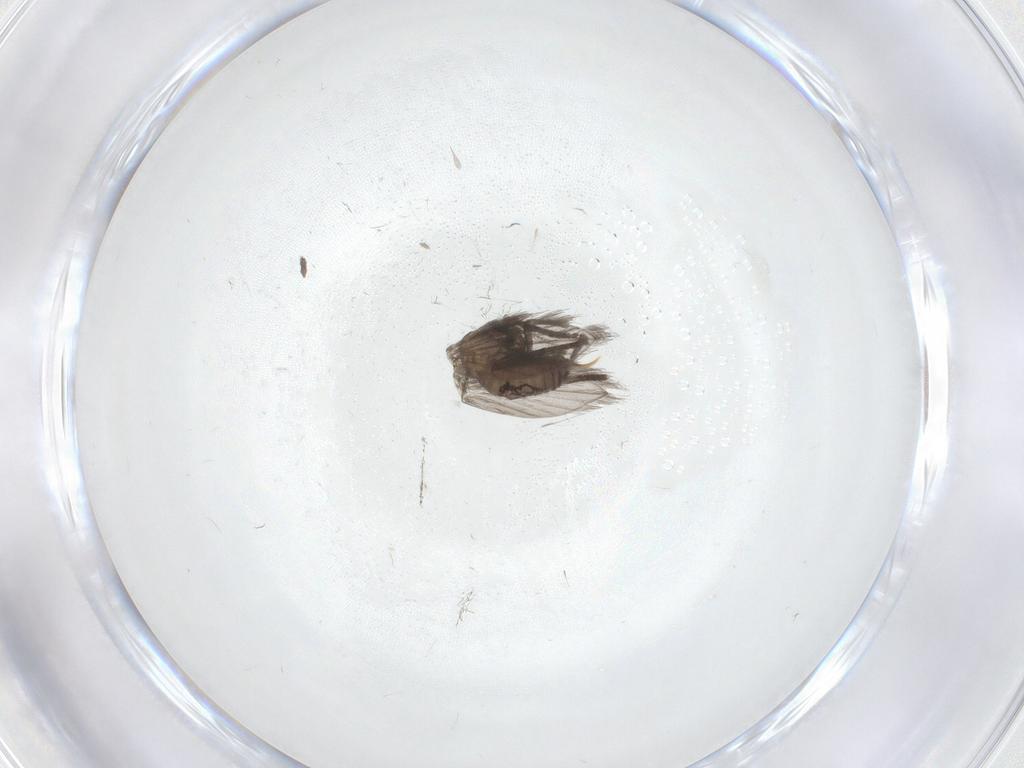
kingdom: Animalia
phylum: Arthropoda
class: Insecta
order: Diptera
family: Psychodidae
